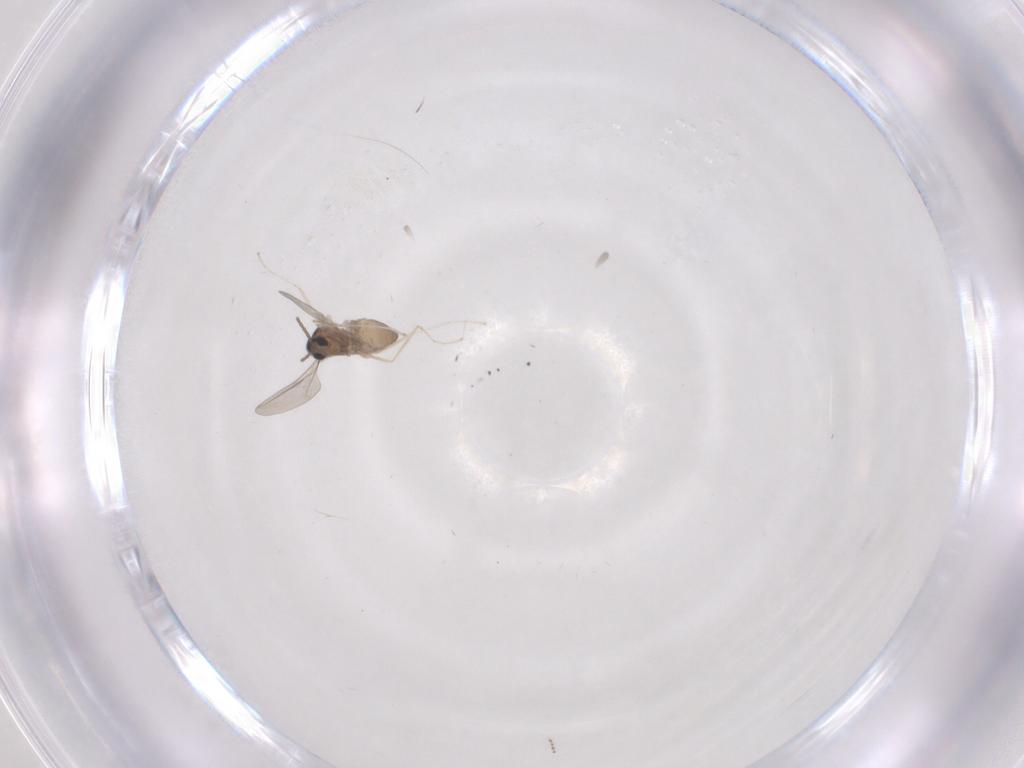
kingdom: Animalia
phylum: Arthropoda
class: Insecta
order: Diptera
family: Cecidomyiidae
